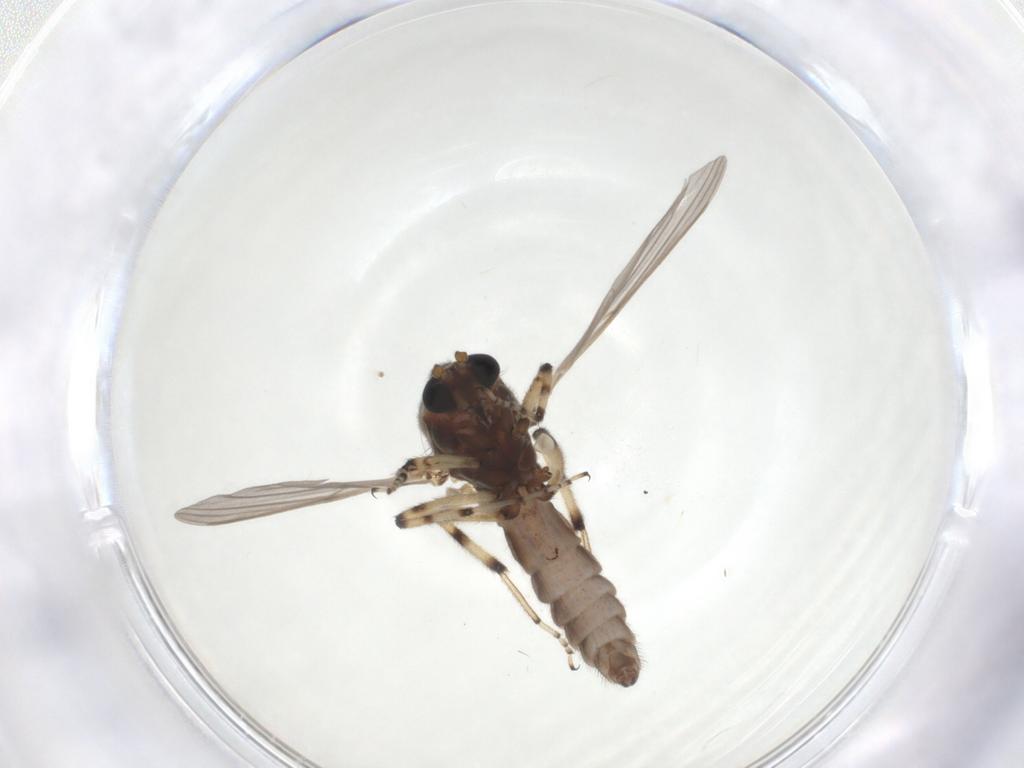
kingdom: Animalia
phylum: Arthropoda
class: Insecta
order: Diptera
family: Ceratopogonidae
